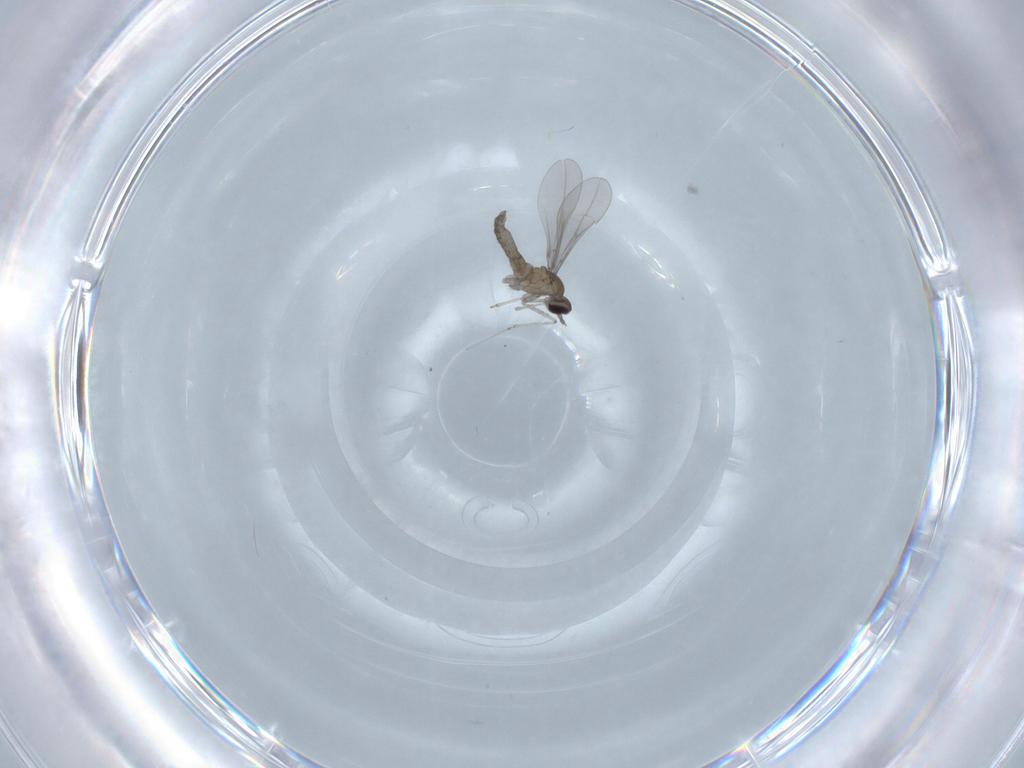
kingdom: Animalia
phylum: Arthropoda
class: Insecta
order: Diptera
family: Cecidomyiidae
